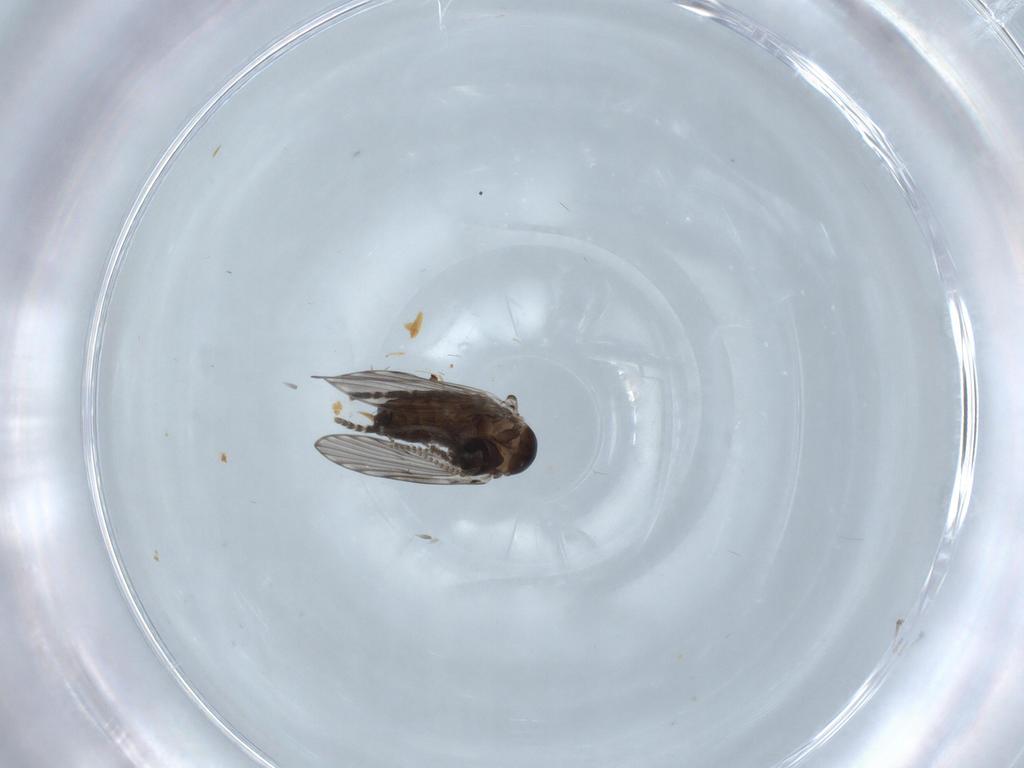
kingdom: Animalia
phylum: Arthropoda
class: Insecta
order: Diptera
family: Psychodidae
